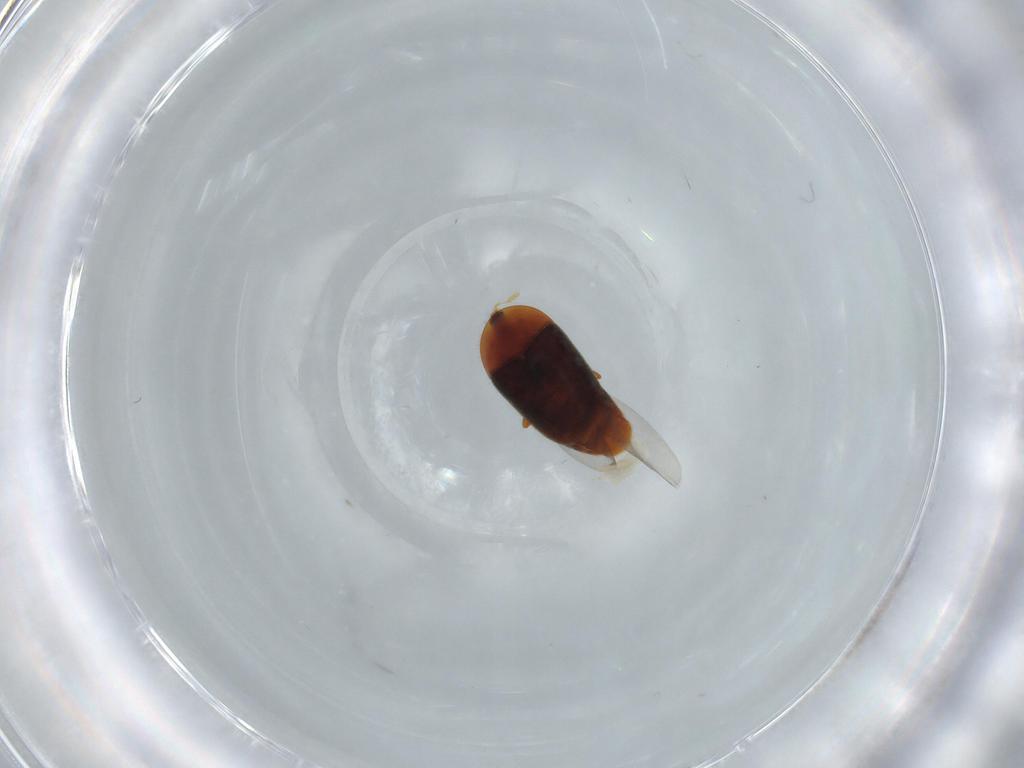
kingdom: Animalia
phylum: Arthropoda
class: Insecta
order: Coleoptera
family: Corylophidae
